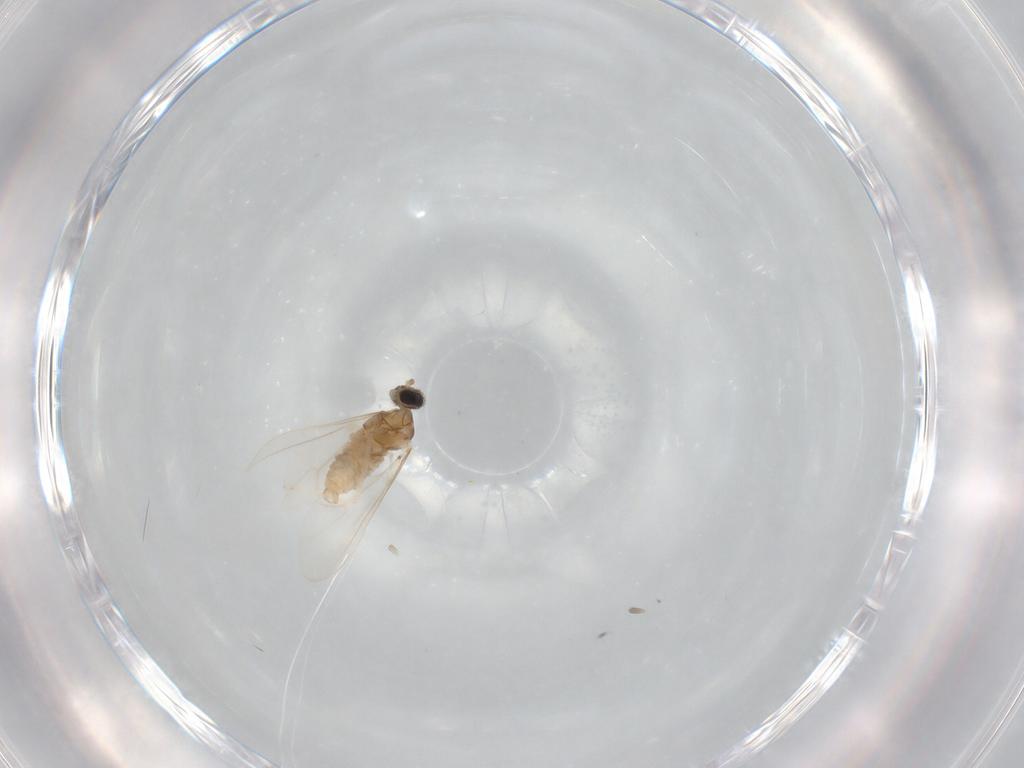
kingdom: Animalia
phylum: Arthropoda
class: Insecta
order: Diptera
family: Cecidomyiidae
